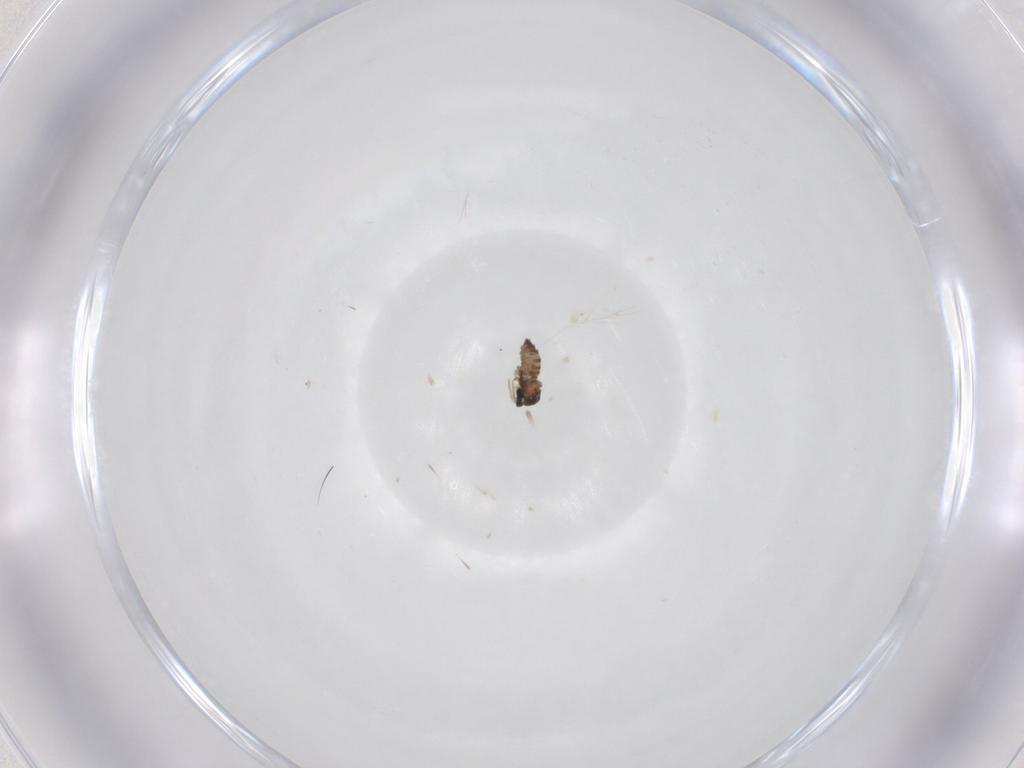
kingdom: Animalia
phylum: Arthropoda
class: Insecta
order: Diptera
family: Cecidomyiidae
